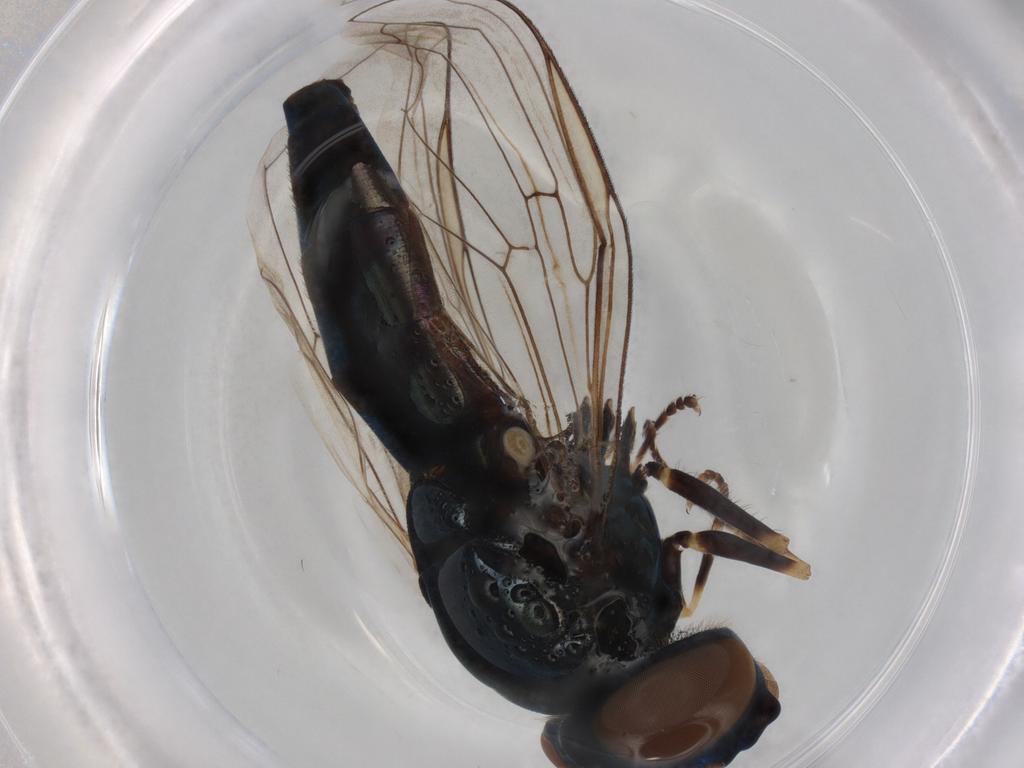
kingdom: Animalia
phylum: Arthropoda
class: Insecta
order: Diptera
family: Syrphidae
